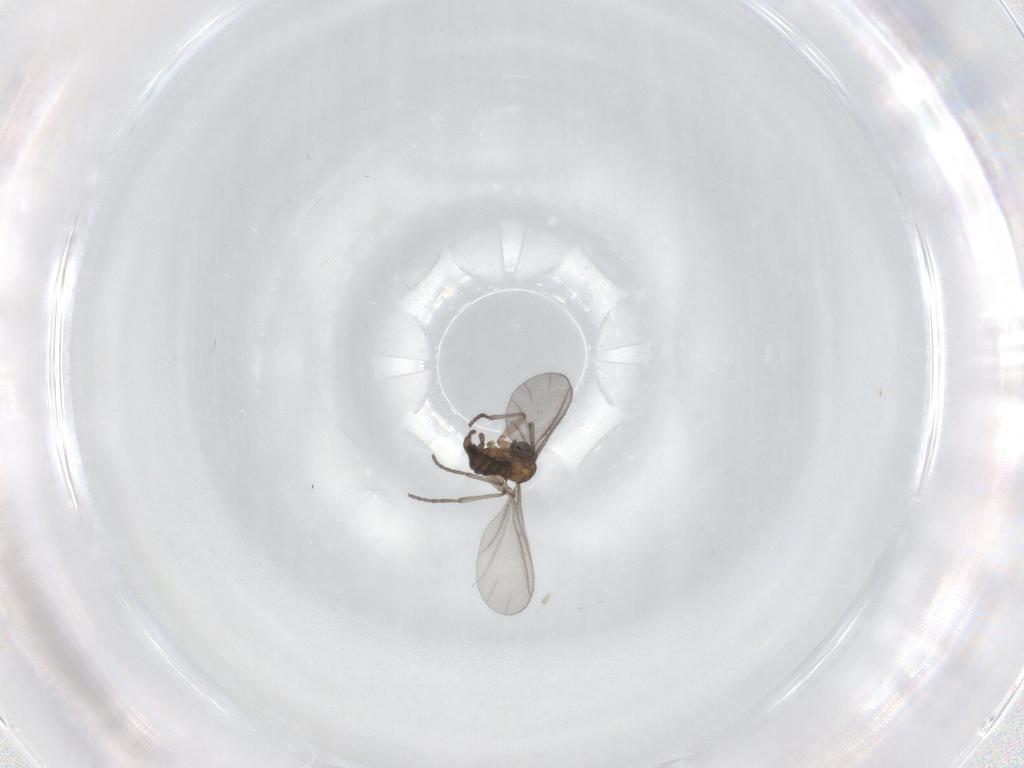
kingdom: Animalia
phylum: Arthropoda
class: Insecta
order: Diptera
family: Sciaridae
